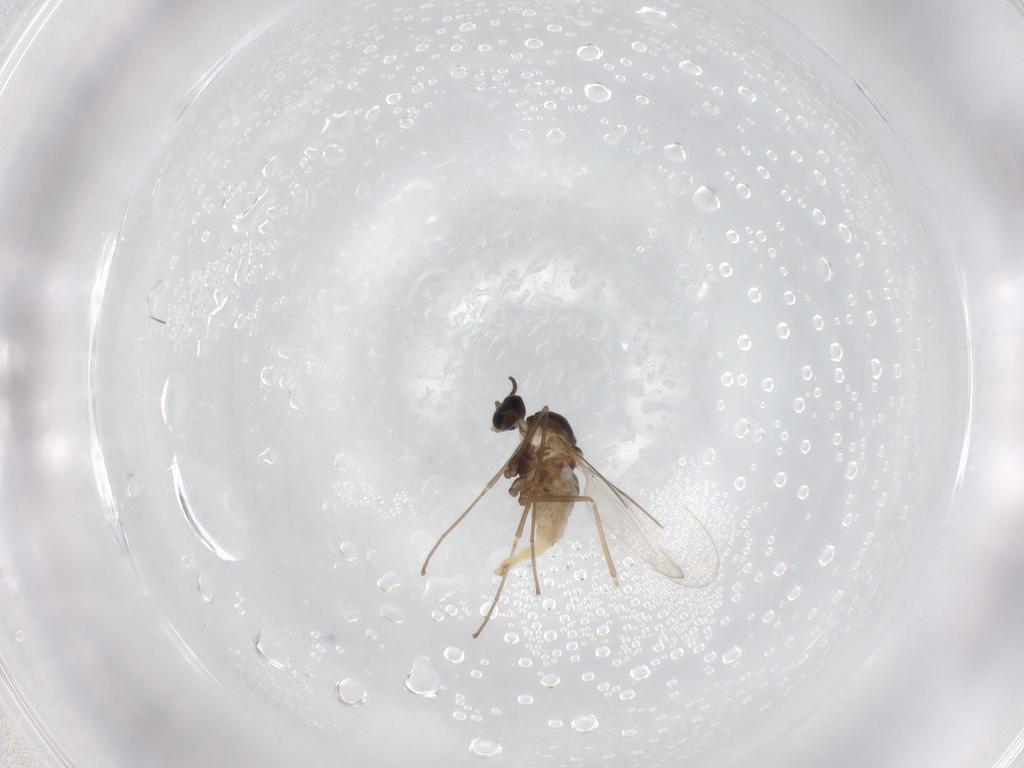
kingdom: Animalia
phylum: Arthropoda
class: Insecta
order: Diptera
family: Cecidomyiidae
